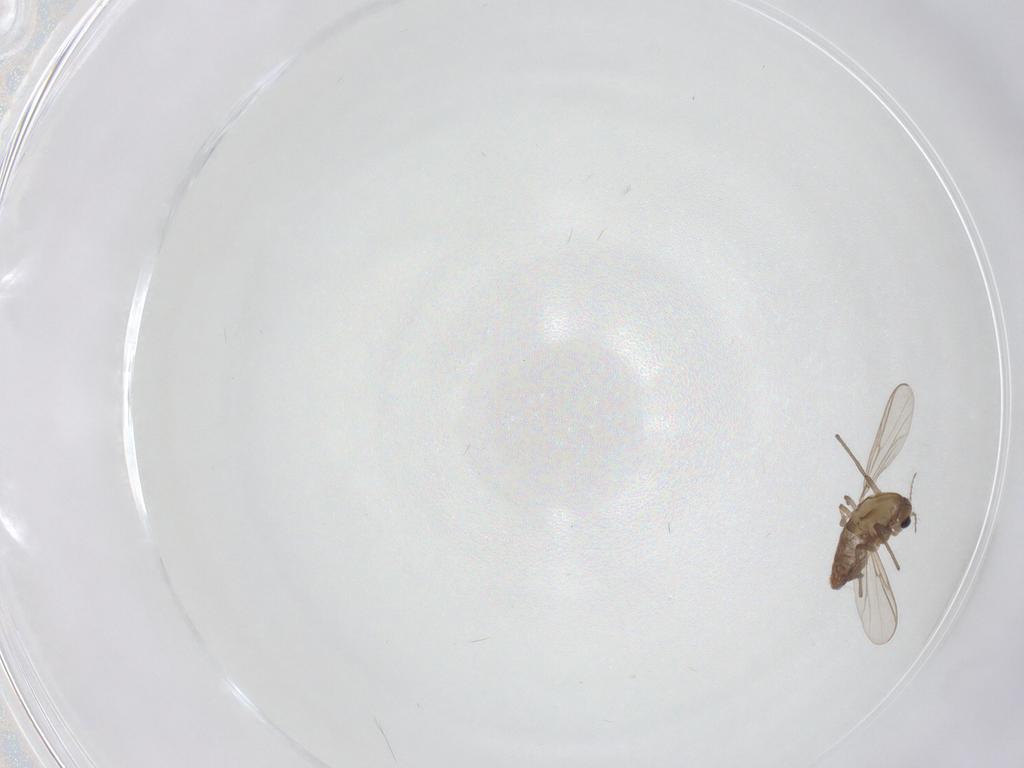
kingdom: Animalia
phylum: Arthropoda
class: Insecta
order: Diptera
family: Chironomidae
